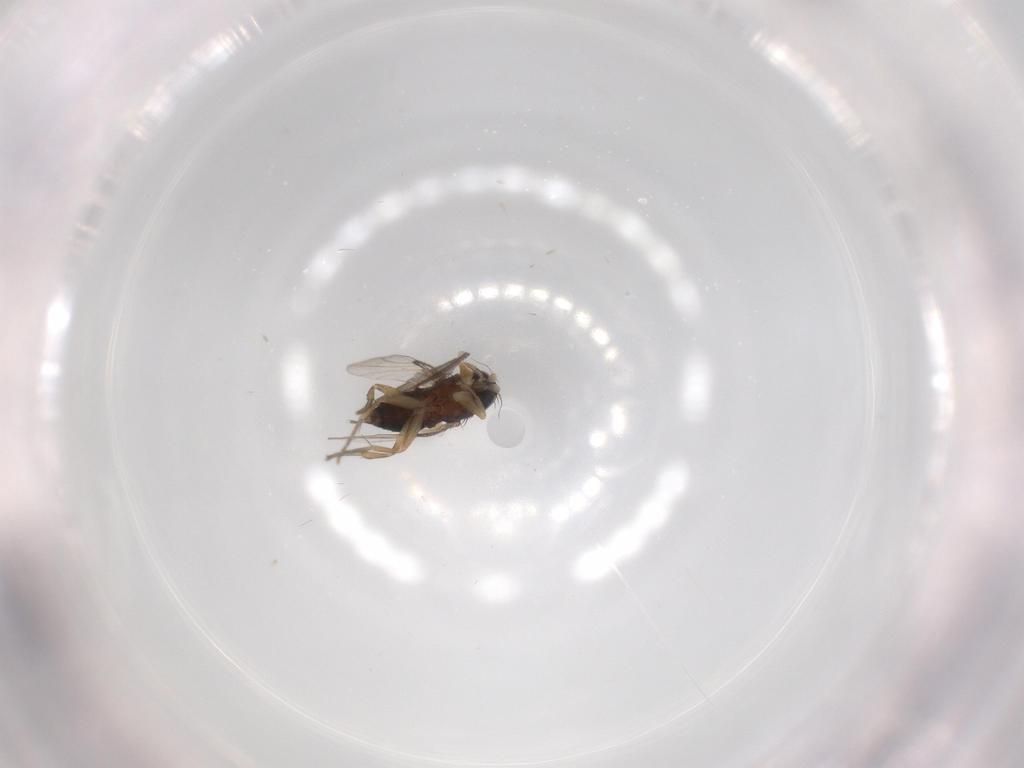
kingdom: Animalia
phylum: Arthropoda
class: Insecta
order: Diptera
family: Phoridae
